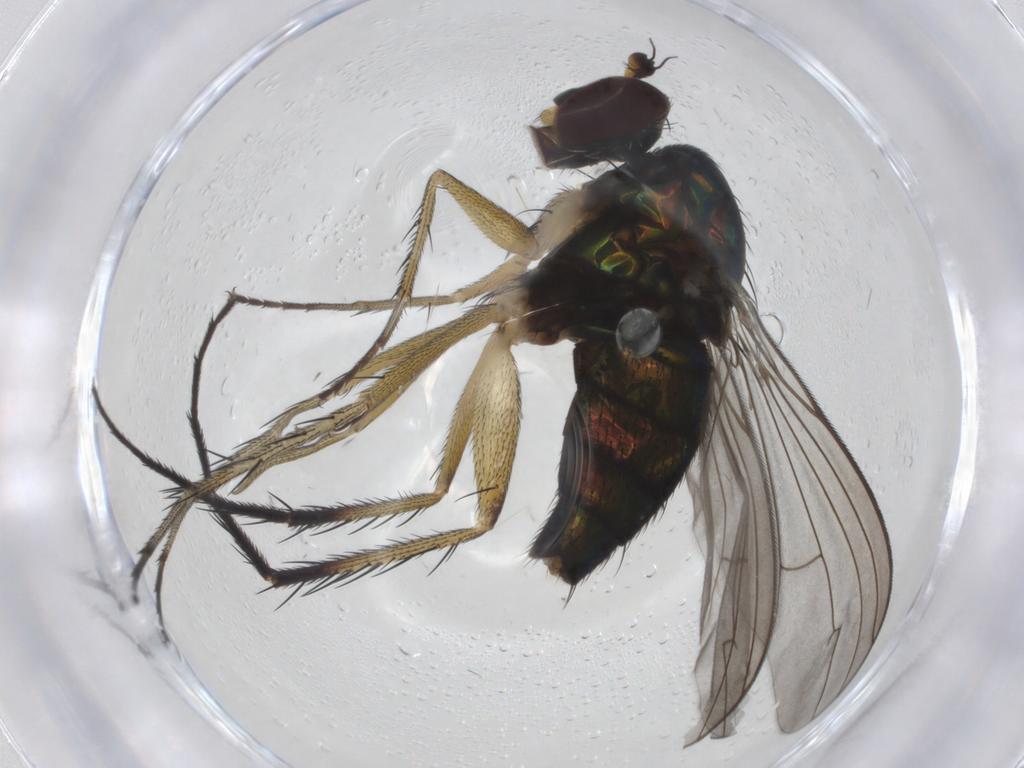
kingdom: Animalia
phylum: Arthropoda
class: Insecta
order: Diptera
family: Dolichopodidae
